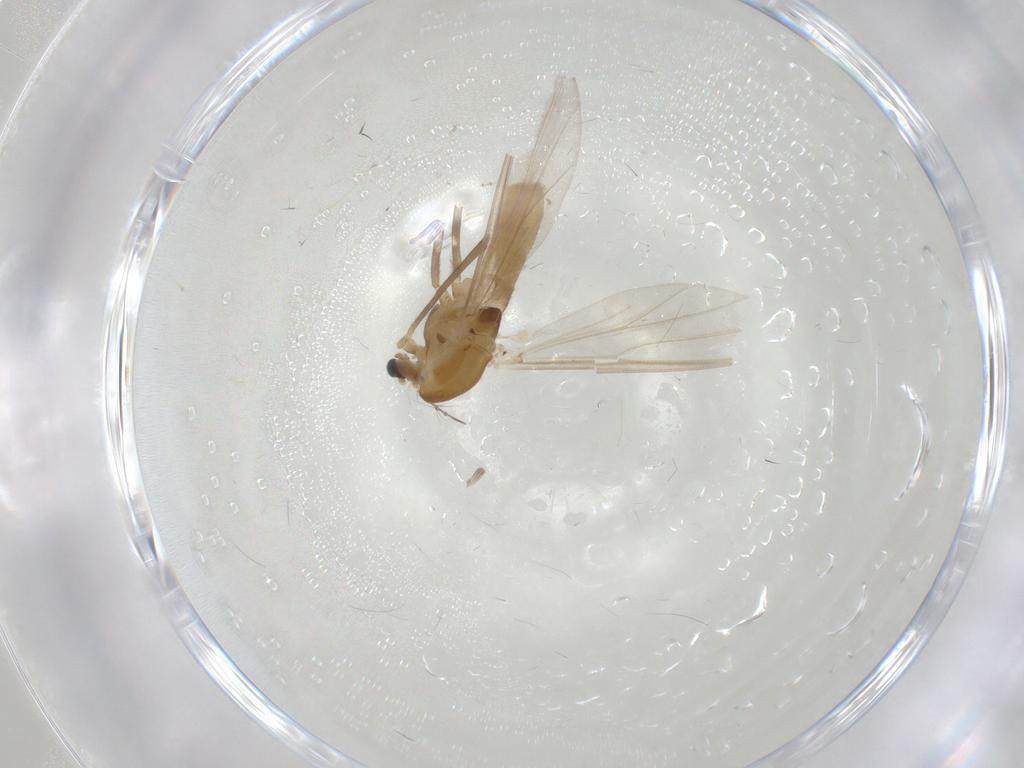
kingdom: Animalia
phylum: Arthropoda
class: Insecta
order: Diptera
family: Chironomidae
